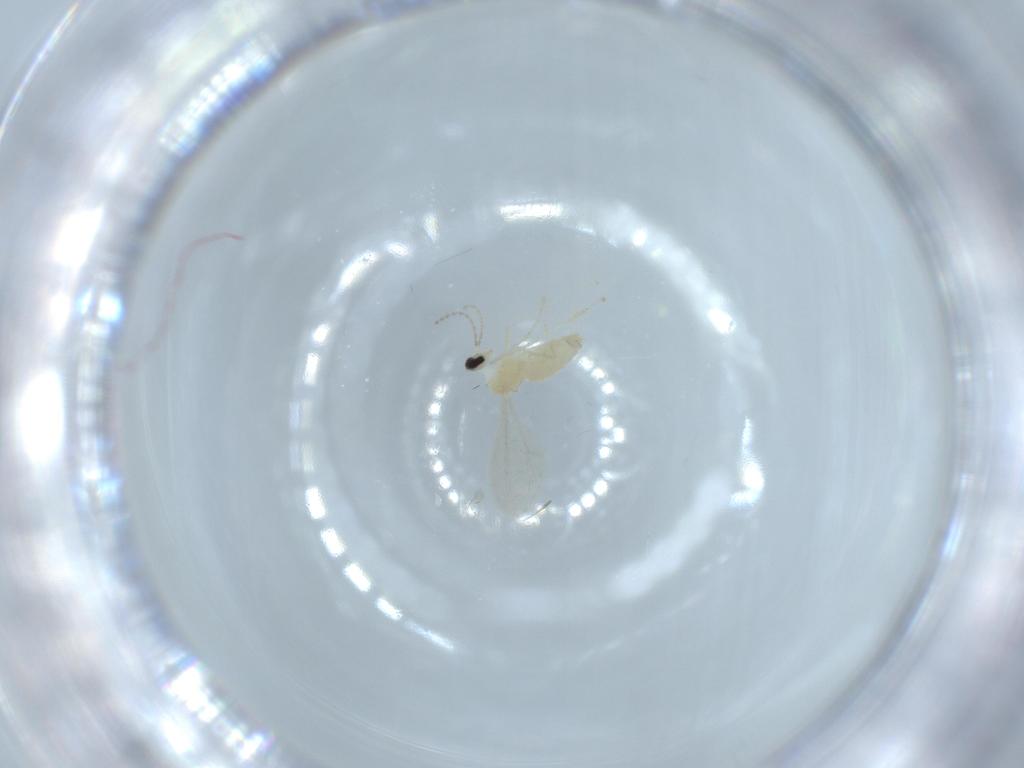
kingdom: Animalia
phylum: Arthropoda
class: Insecta
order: Diptera
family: Cecidomyiidae
